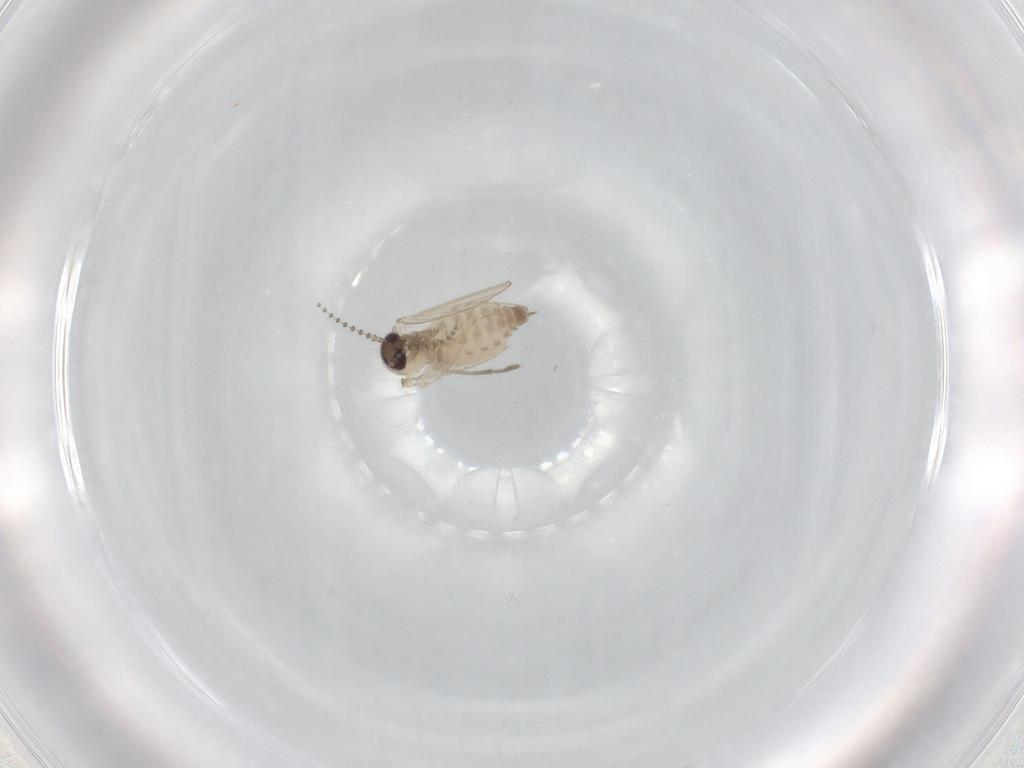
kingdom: Animalia
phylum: Arthropoda
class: Insecta
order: Diptera
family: Psychodidae
